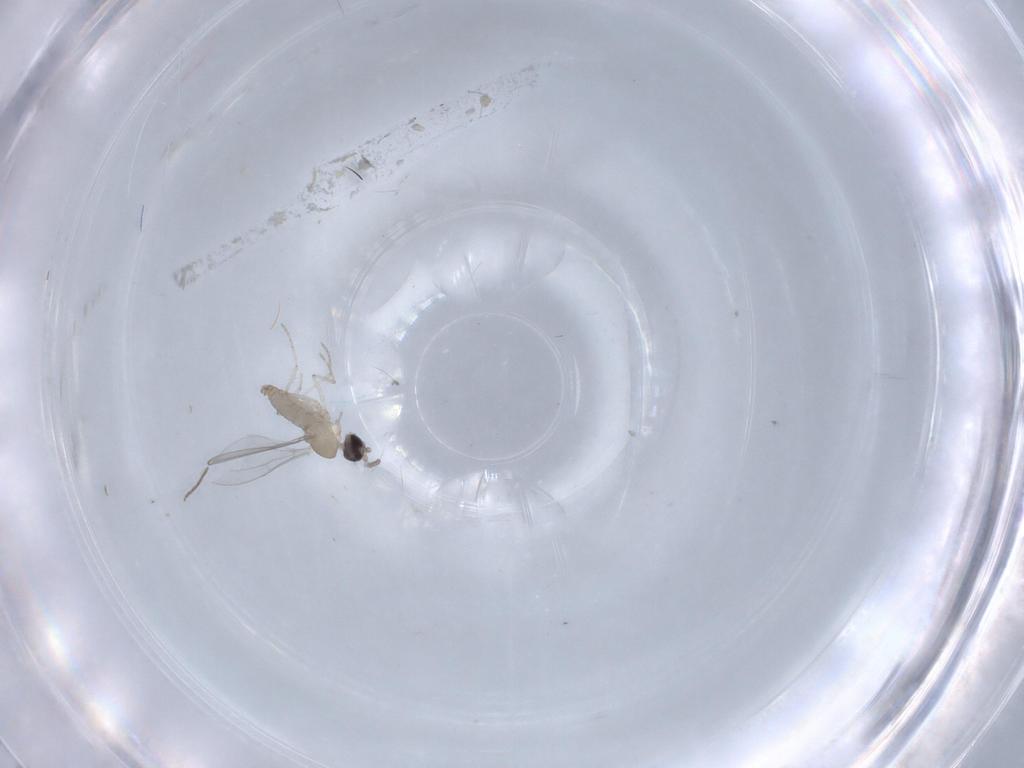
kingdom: Animalia
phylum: Arthropoda
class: Insecta
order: Diptera
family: Cecidomyiidae
